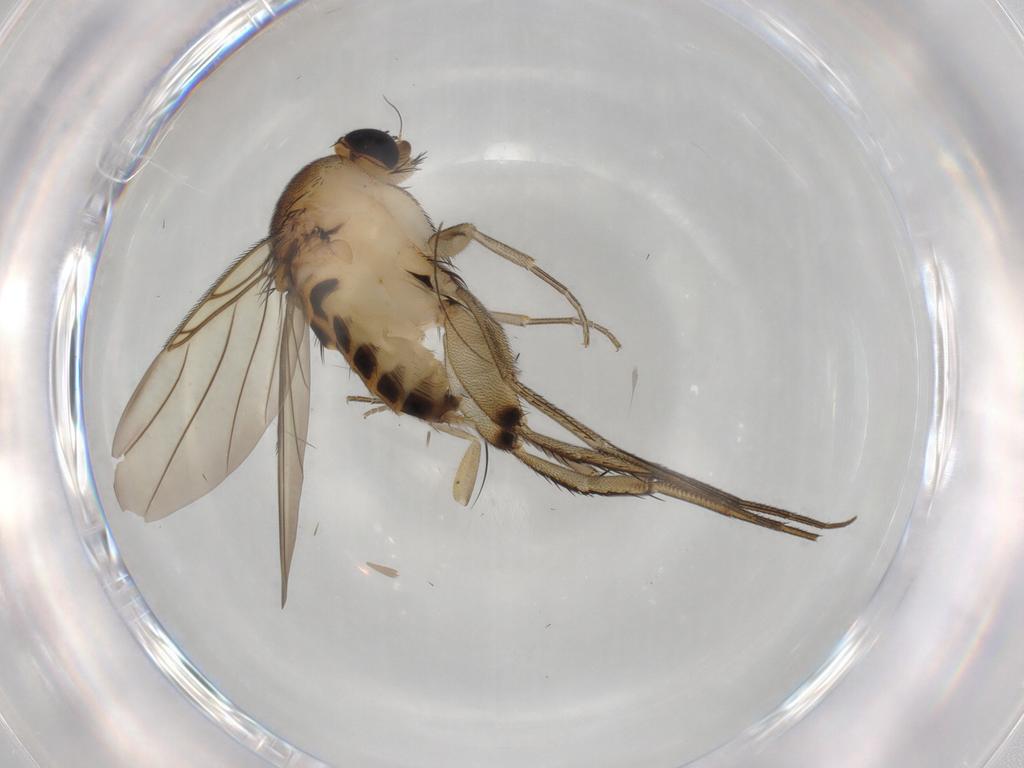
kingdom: Animalia
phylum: Arthropoda
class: Insecta
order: Diptera
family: Phoridae
